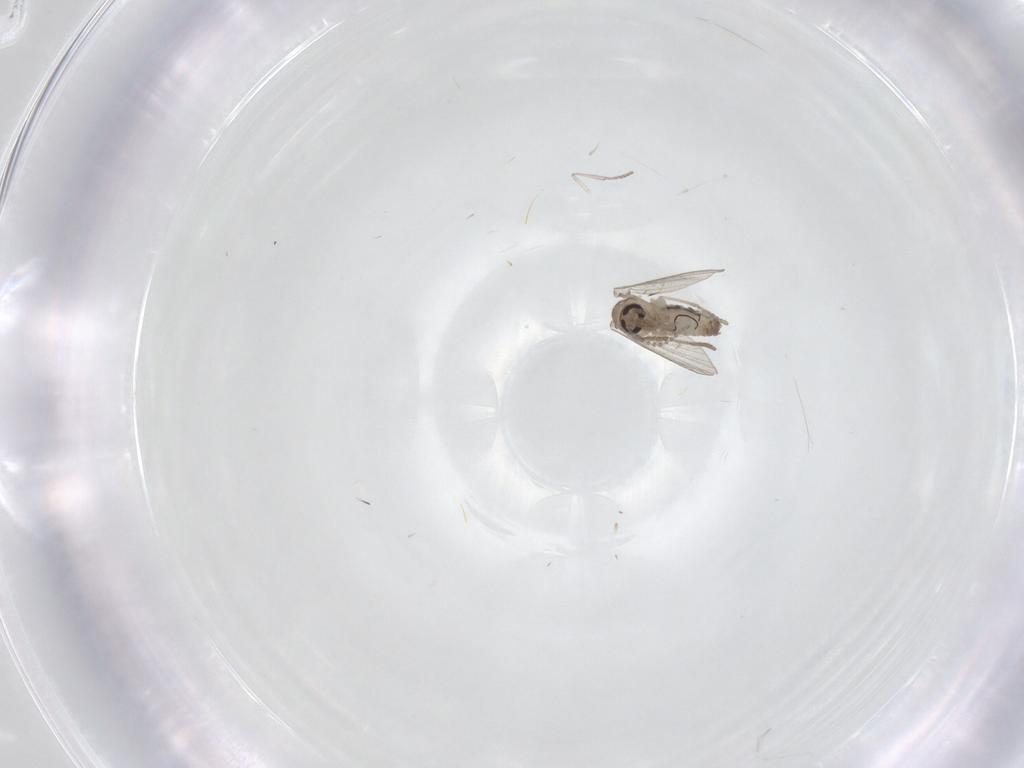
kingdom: Animalia
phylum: Arthropoda
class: Insecta
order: Diptera
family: Psychodidae
